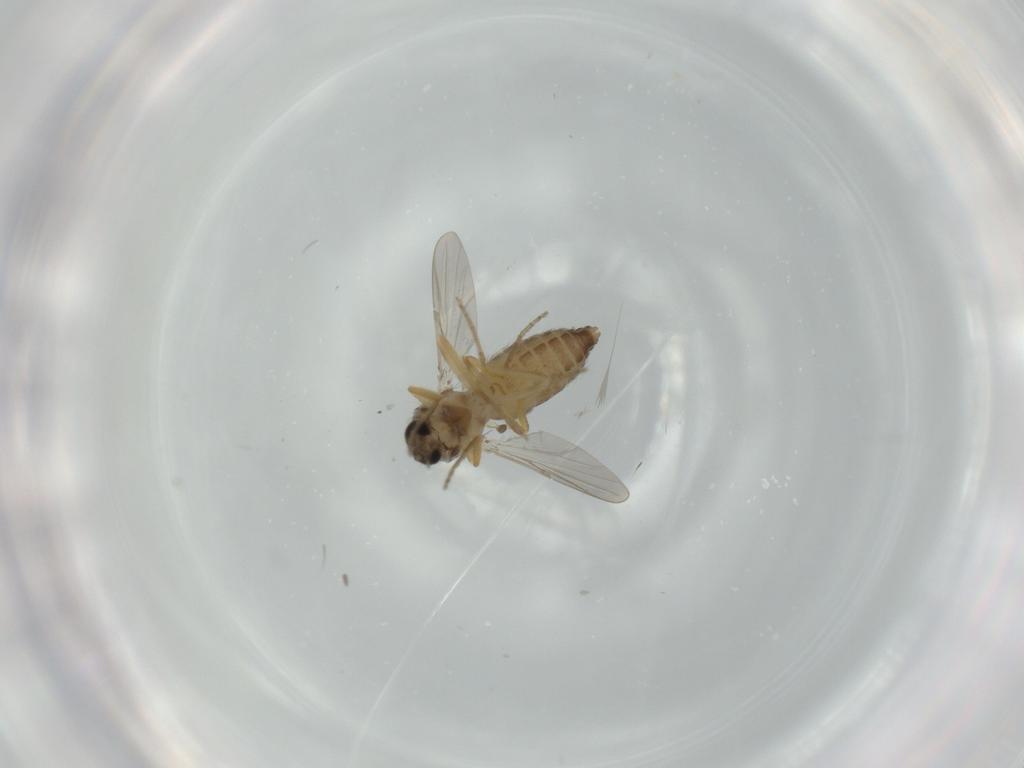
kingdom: Animalia
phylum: Arthropoda
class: Insecta
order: Diptera
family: Ceratopogonidae
